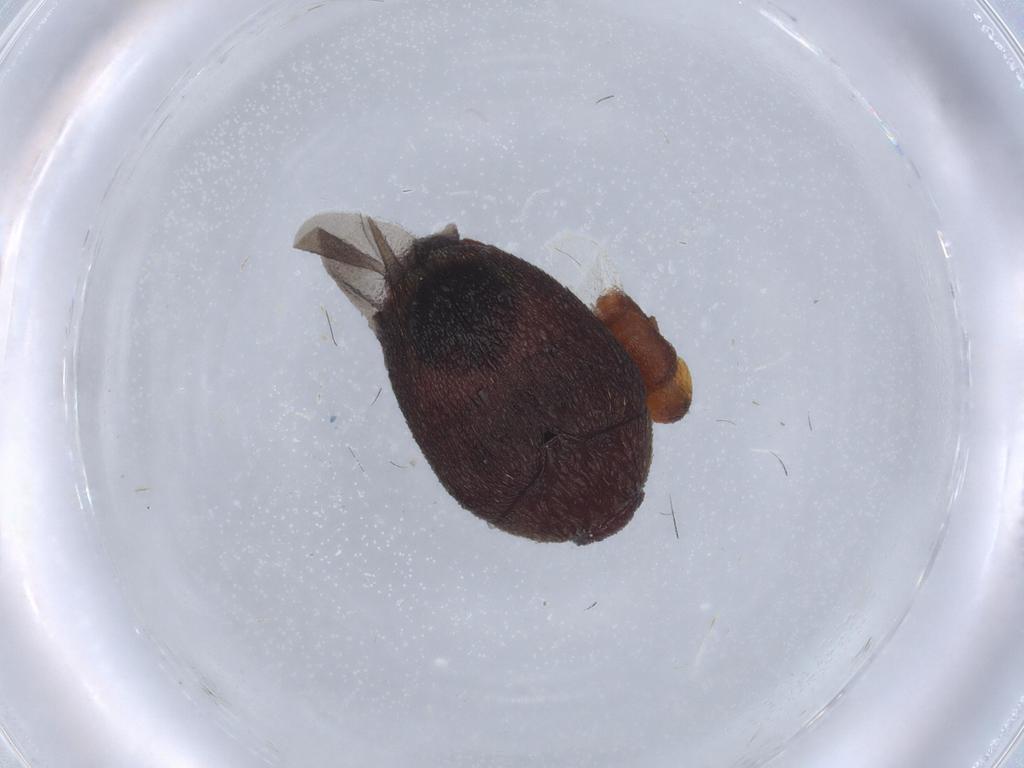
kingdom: Animalia
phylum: Arthropoda
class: Insecta
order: Coleoptera
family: Corylophidae
